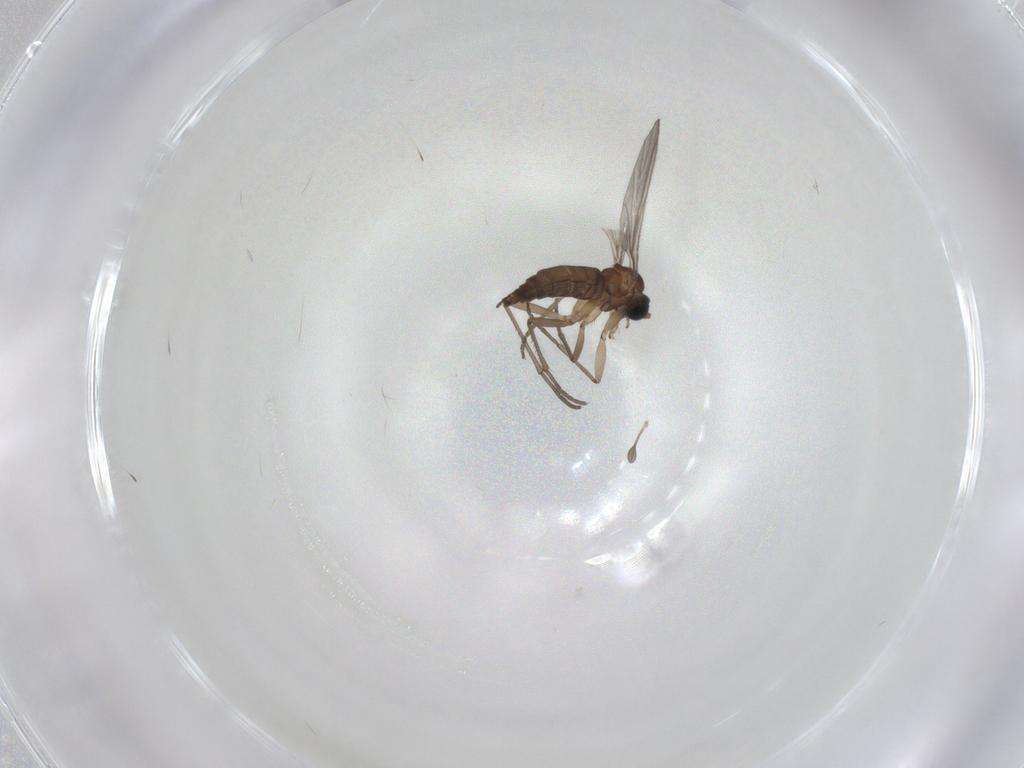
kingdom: Animalia
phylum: Arthropoda
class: Insecta
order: Diptera
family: Sciaridae
